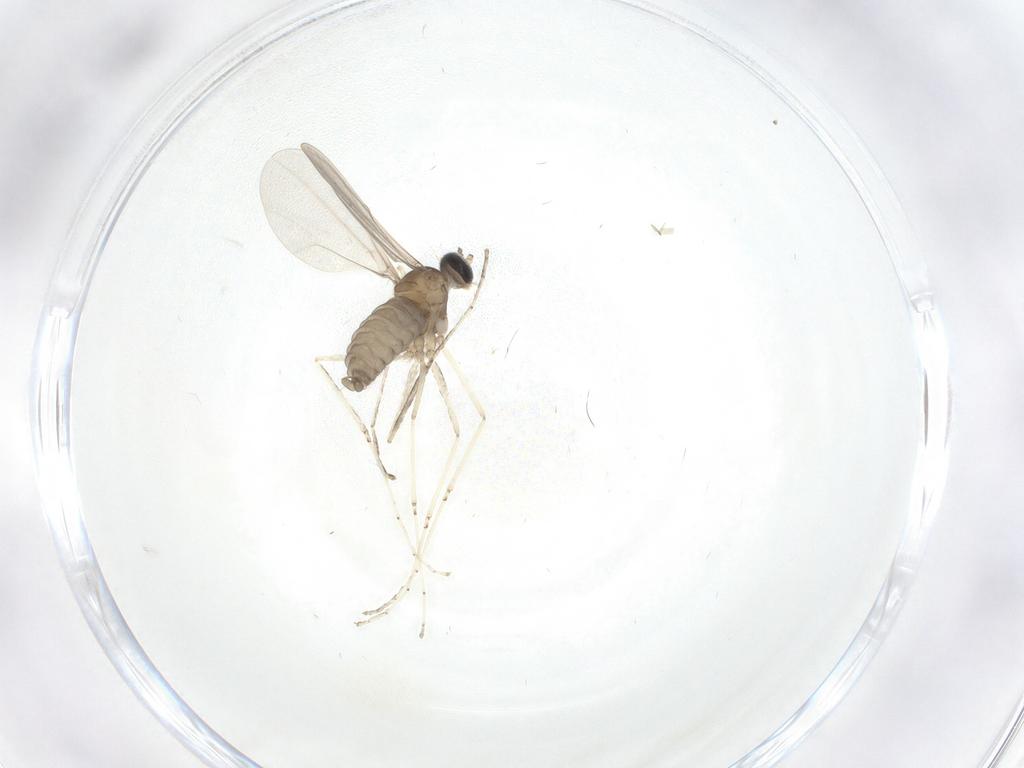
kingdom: Animalia
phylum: Arthropoda
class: Insecta
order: Diptera
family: Cecidomyiidae
